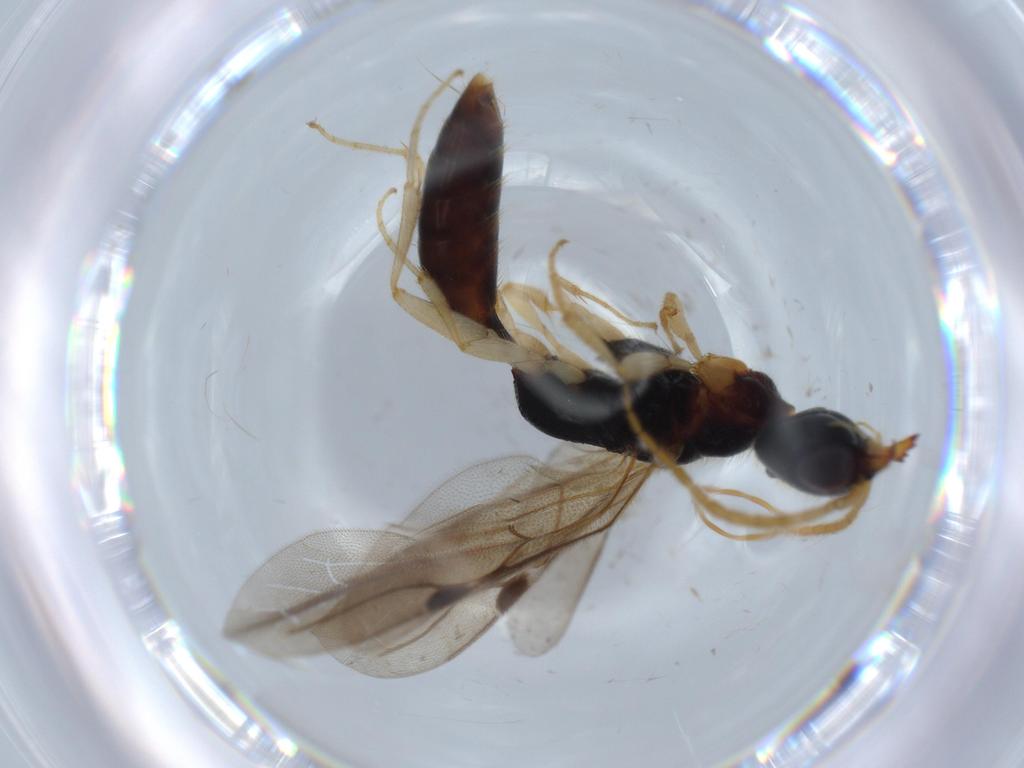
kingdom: Animalia
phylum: Arthropoda
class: Insecta
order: Hymenoptera
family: Bethylidae
